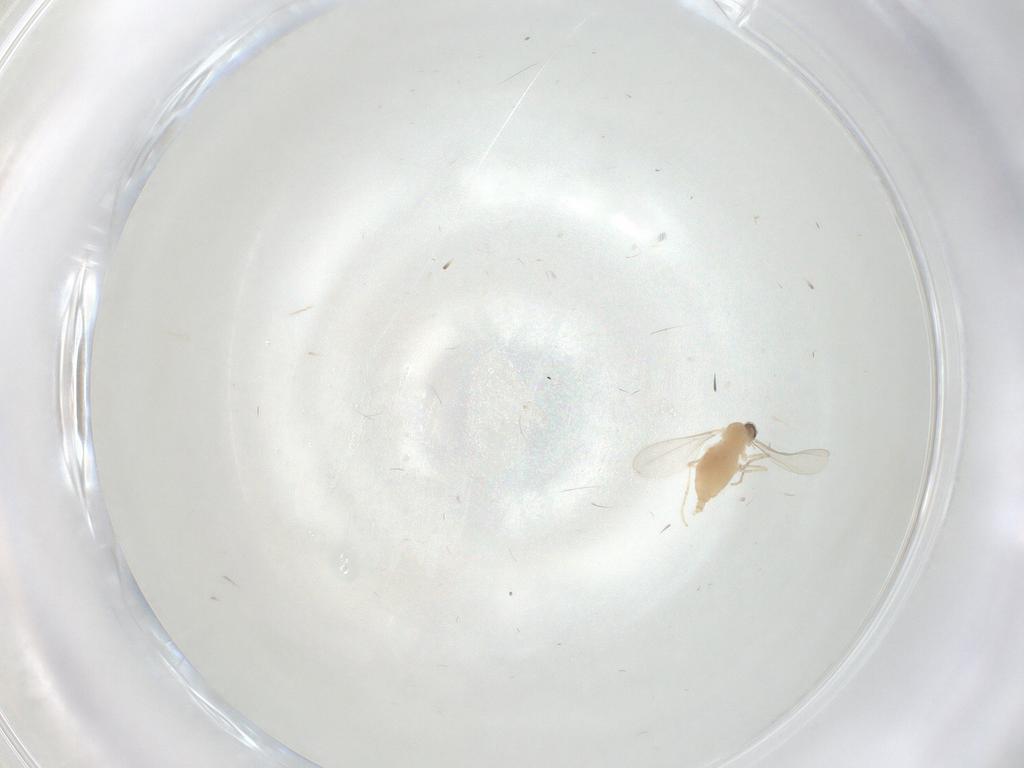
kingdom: Animalia
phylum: Arthropoda
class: Insecta
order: Diptera
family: Cecidomyiidae
